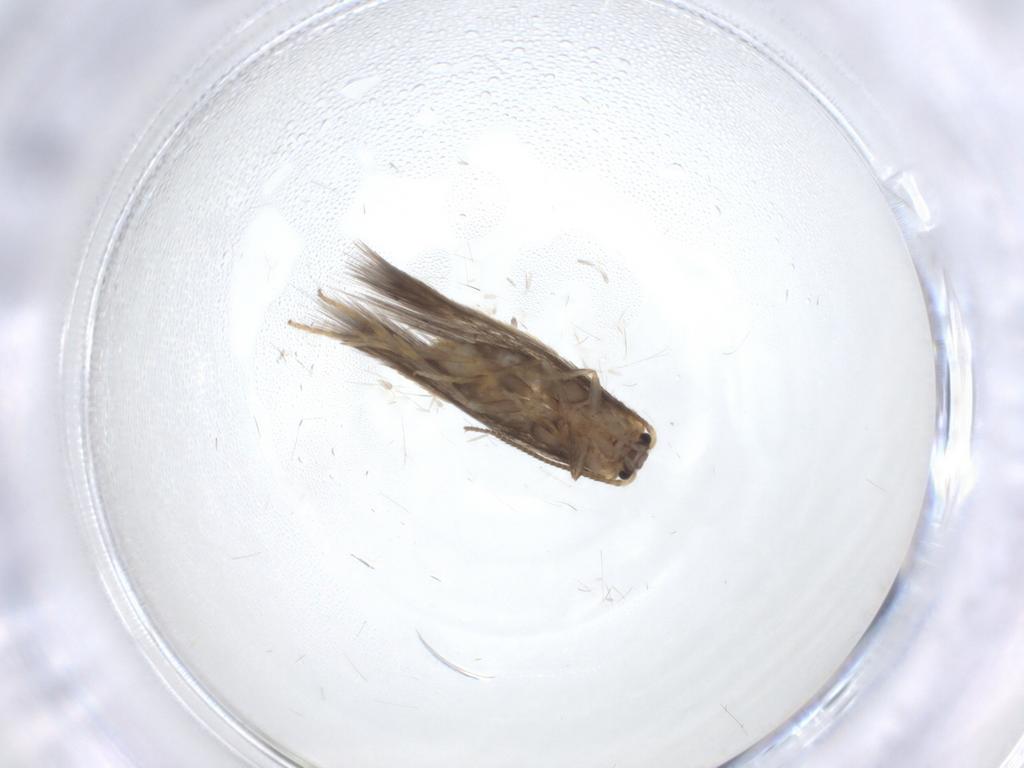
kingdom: Animalia
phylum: Arthropoda
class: Insecta
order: Lepidoptera
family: Nepticulidae
